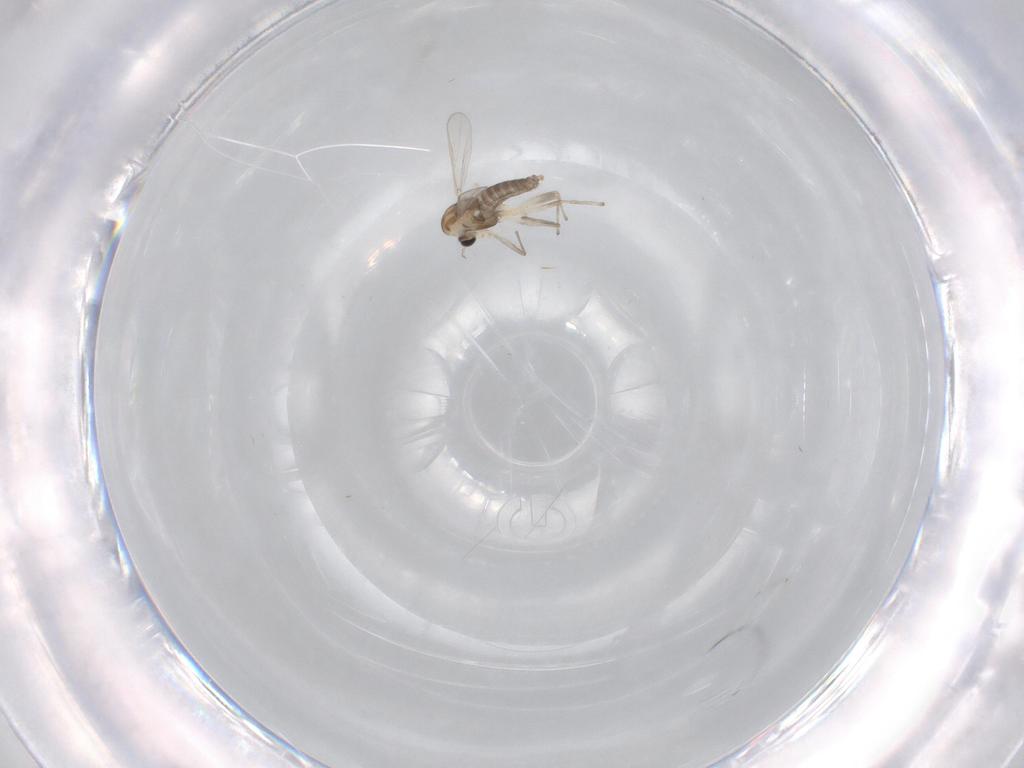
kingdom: Animalia
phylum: Arthropoda
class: Insecta
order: Diptera
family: Chironomidae
